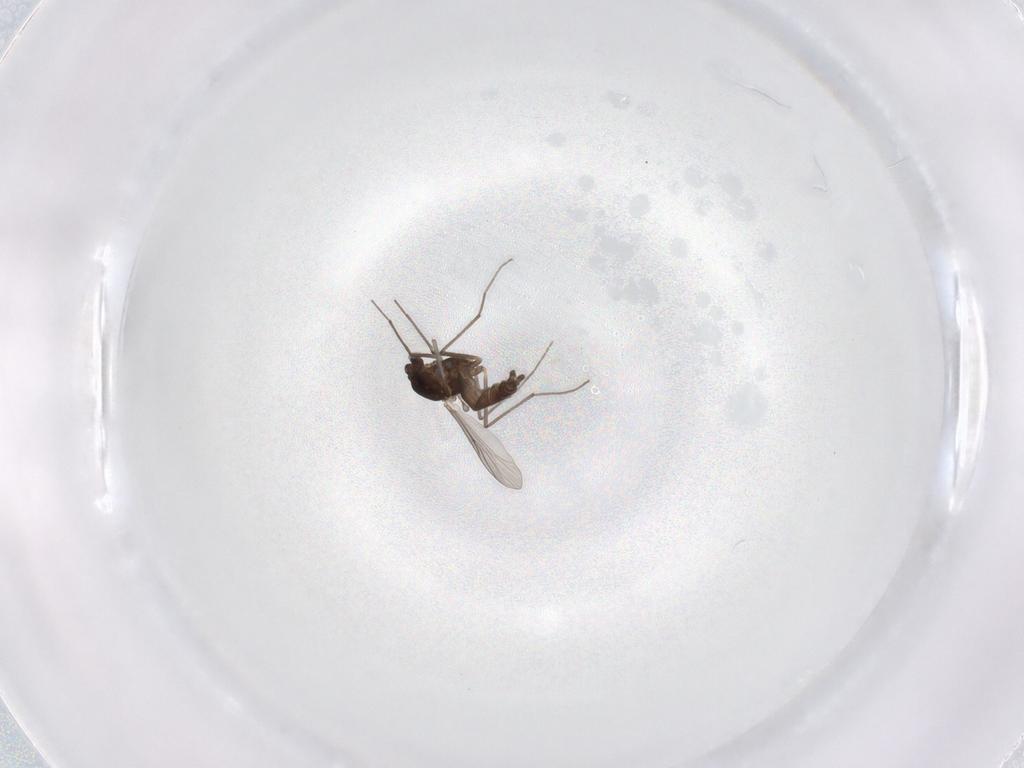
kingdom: Animalia
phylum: Arthropoda
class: Insecta
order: Diptera
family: Chironomidae
